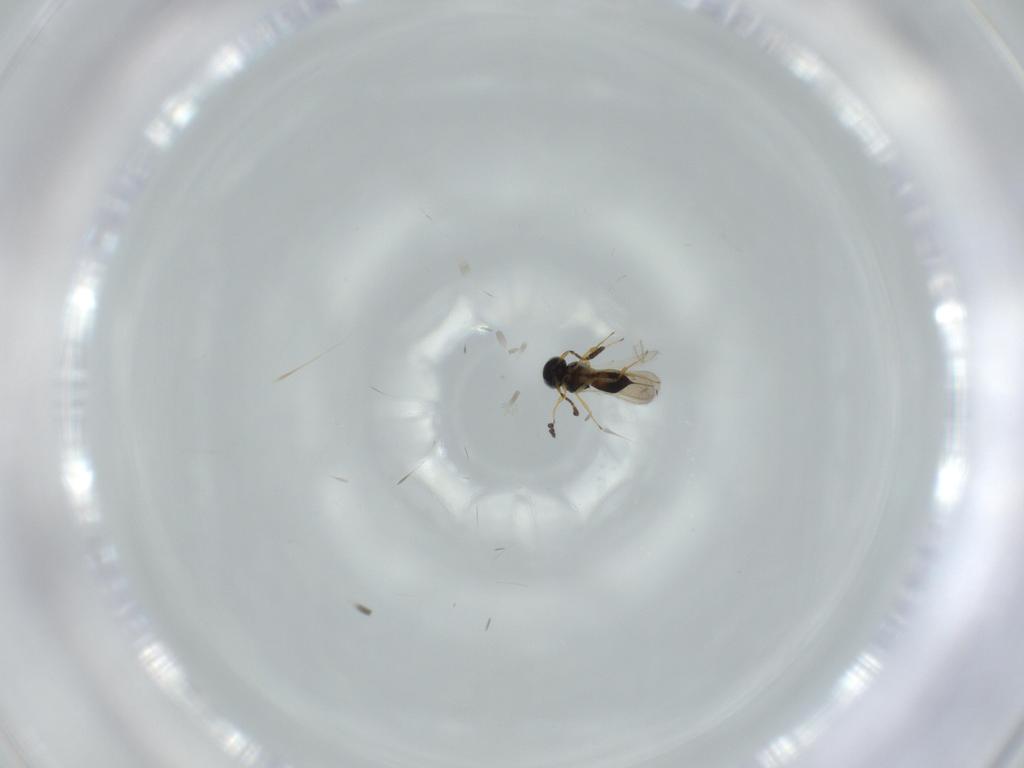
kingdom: Animalia
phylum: Arthropoda
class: Insecta
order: Hymenoptera
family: Scelionidae
